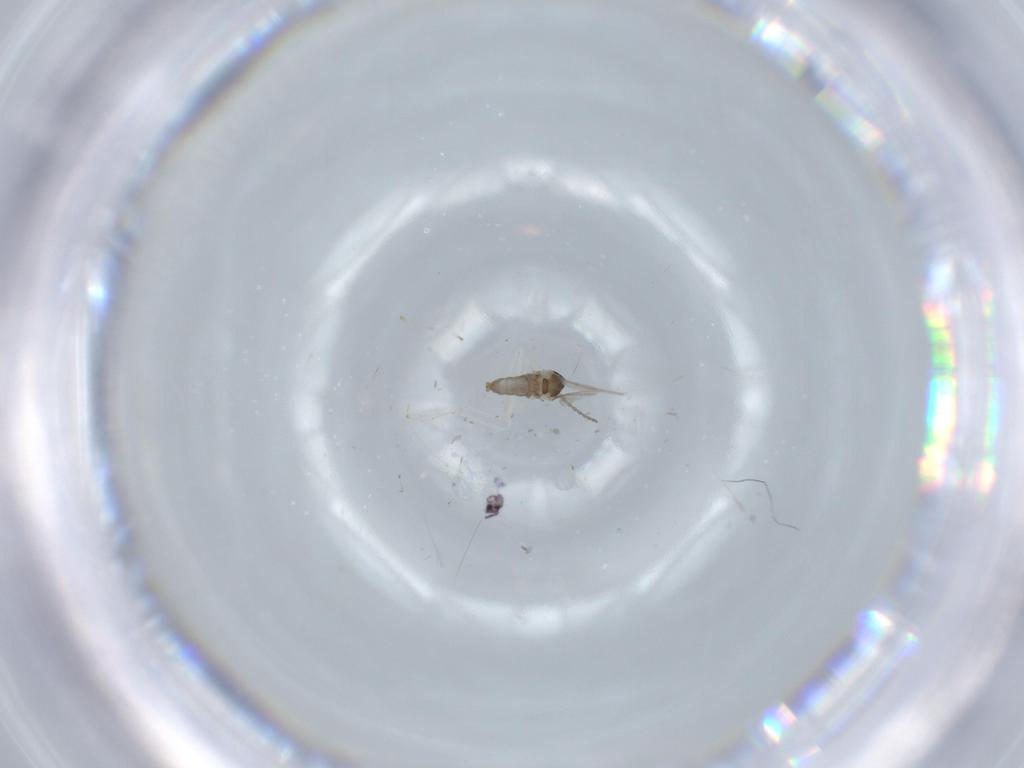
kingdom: Animalia
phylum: Arthropoda
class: Insecta
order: Diptera
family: Cecidomyiidae
